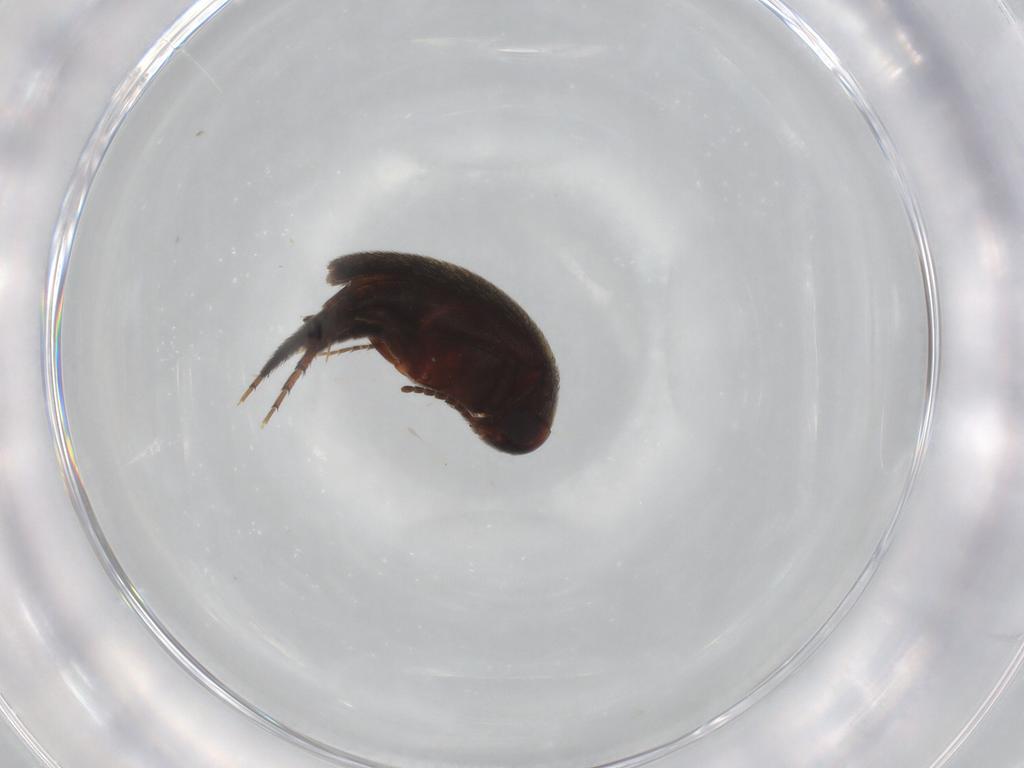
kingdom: Animalia
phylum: Arthropoda
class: Insecta
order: Coleoptera
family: Mordellidae
